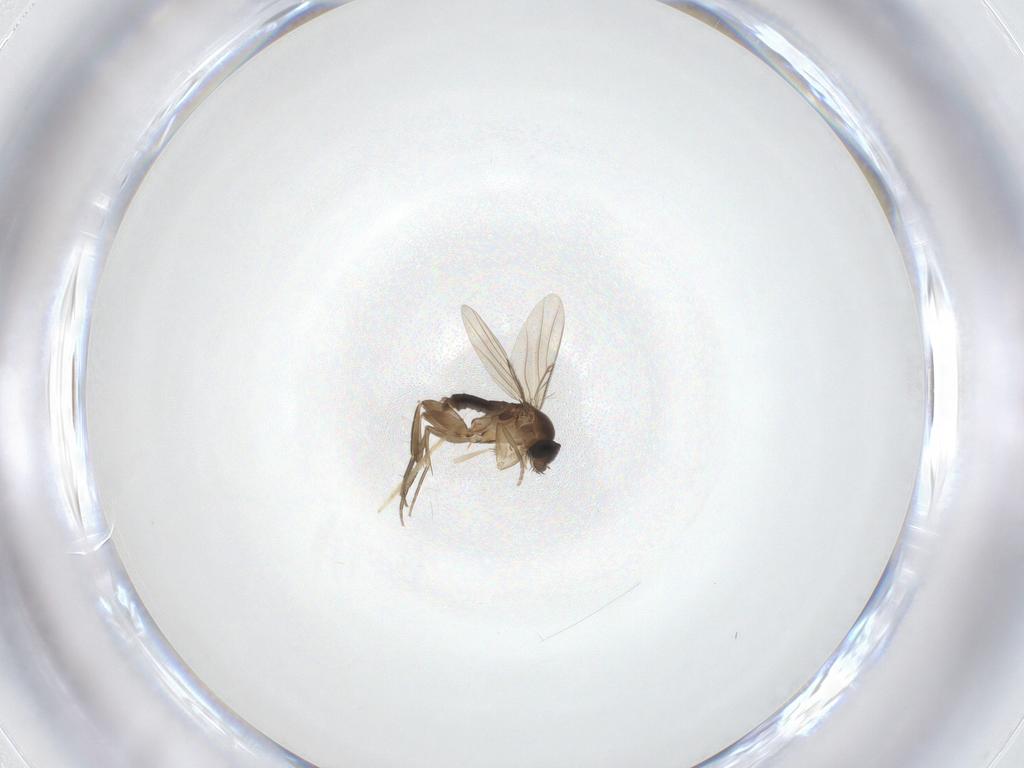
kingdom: Animalia
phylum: Arthropoda
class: Insecta
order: Diptera
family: Phoridae
